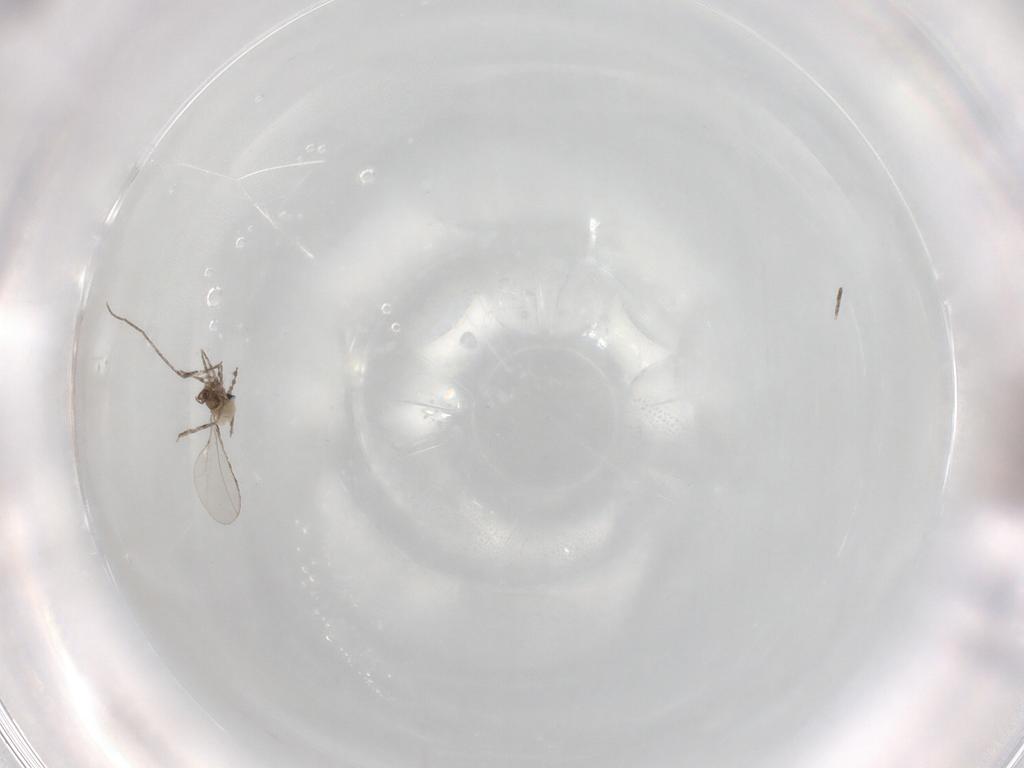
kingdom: Animalia
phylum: Arthropoda
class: Insecta
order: Diptera
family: Cecidomyiidae
